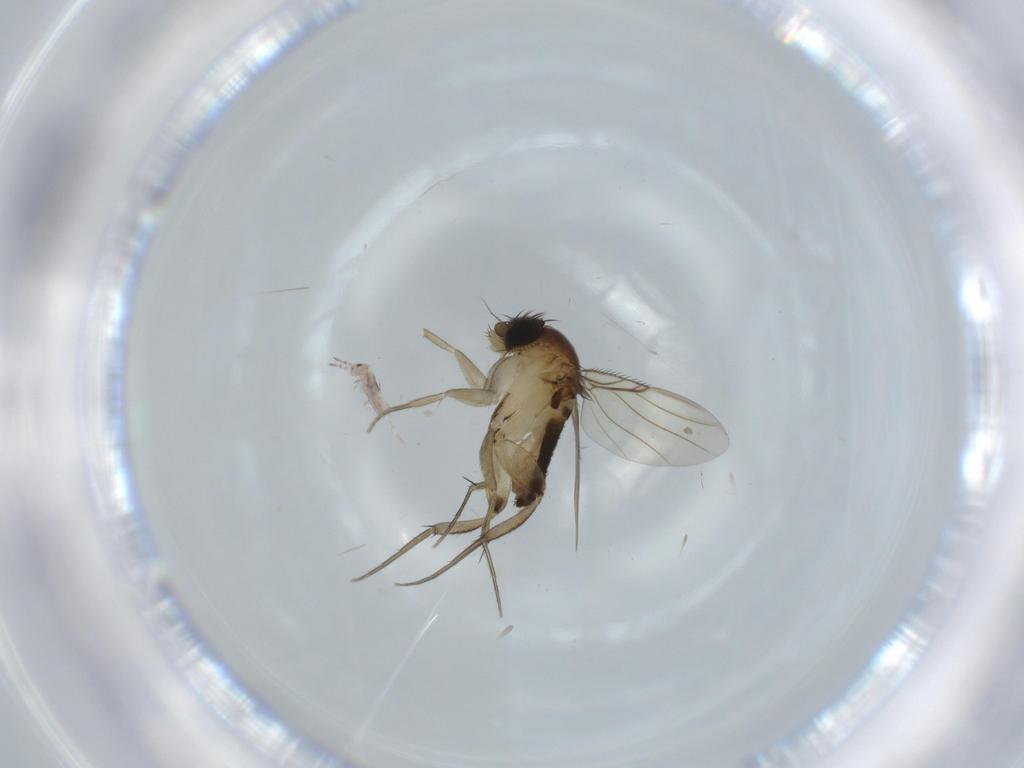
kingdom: Animalia
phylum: Arthropoda
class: Insecta
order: Diptera
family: Phoridae
